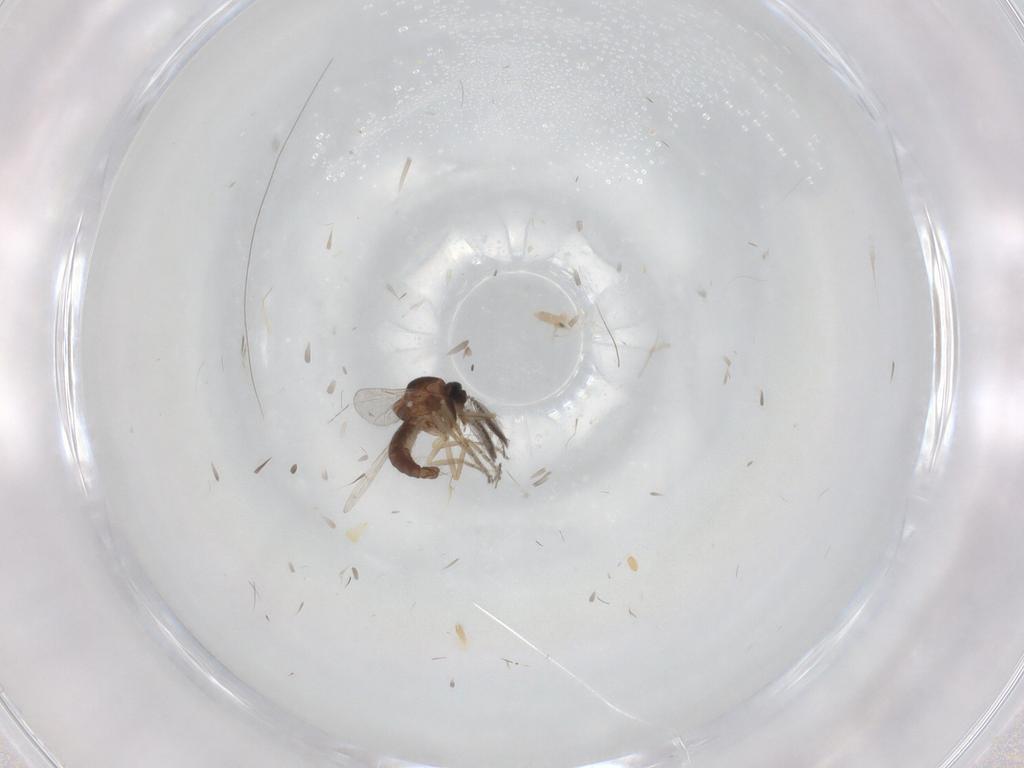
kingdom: Animalia
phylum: Arthropoda
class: Insecta
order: Diptera
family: Ceratopogonidae
